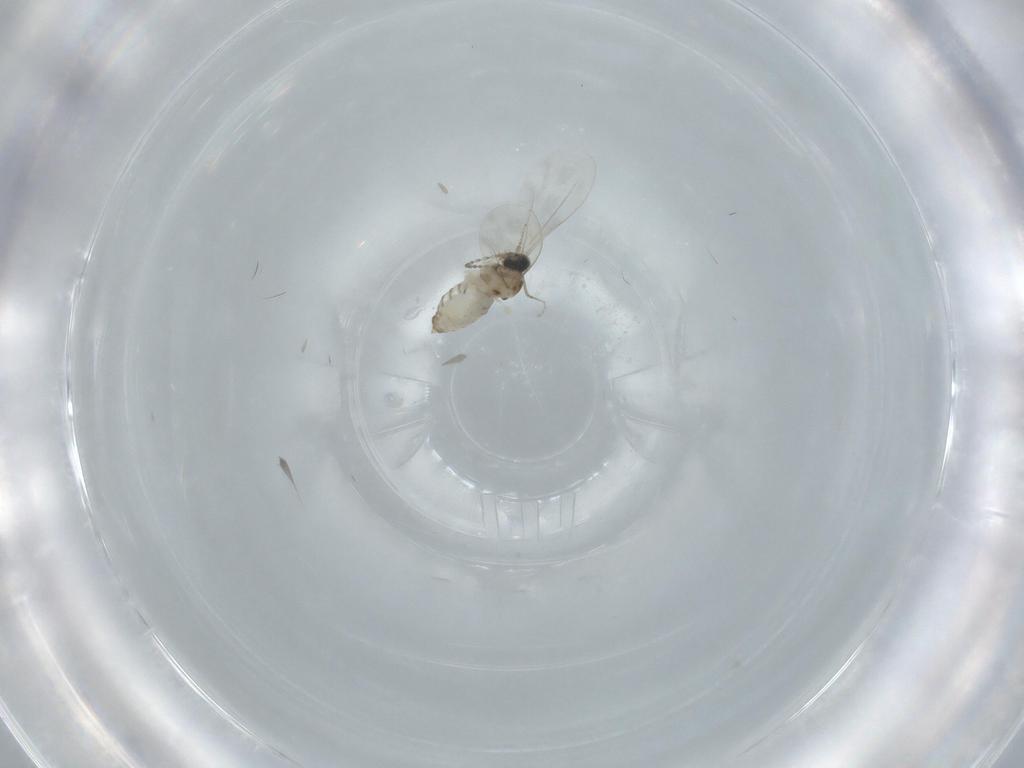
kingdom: Animalia
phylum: Arthropoda
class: Insecta
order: Diptera
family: Cecidomyiidae
